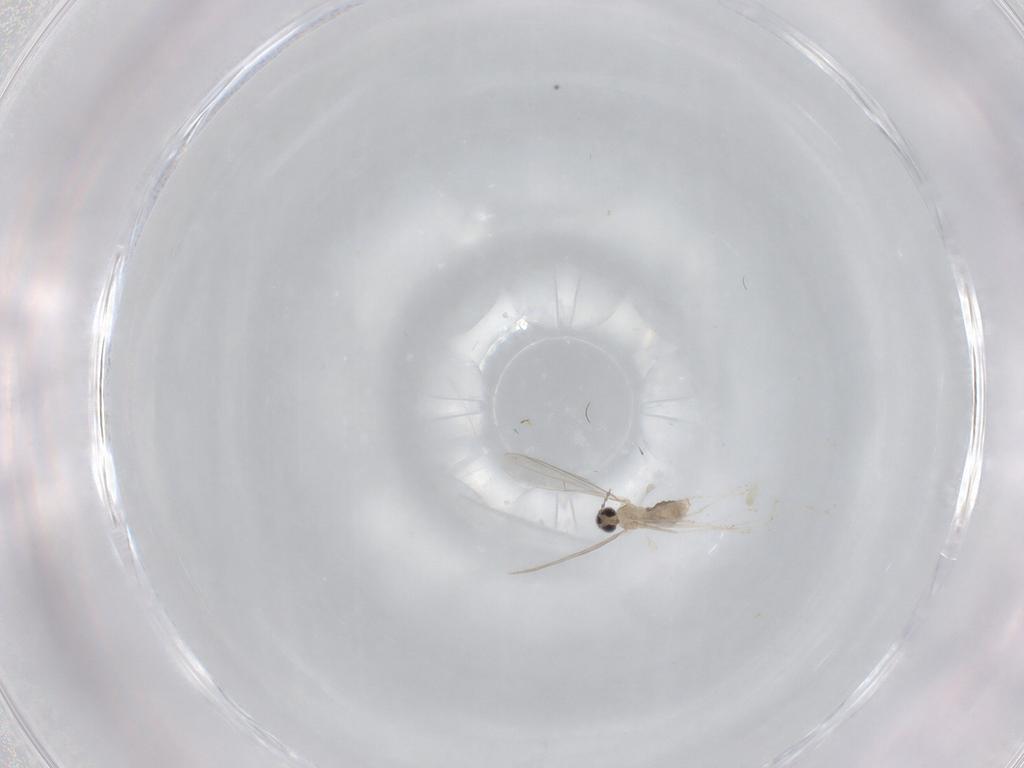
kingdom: Animalia
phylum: Arthropoda
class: Insecta
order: Diptera
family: Cecidomyiidae
